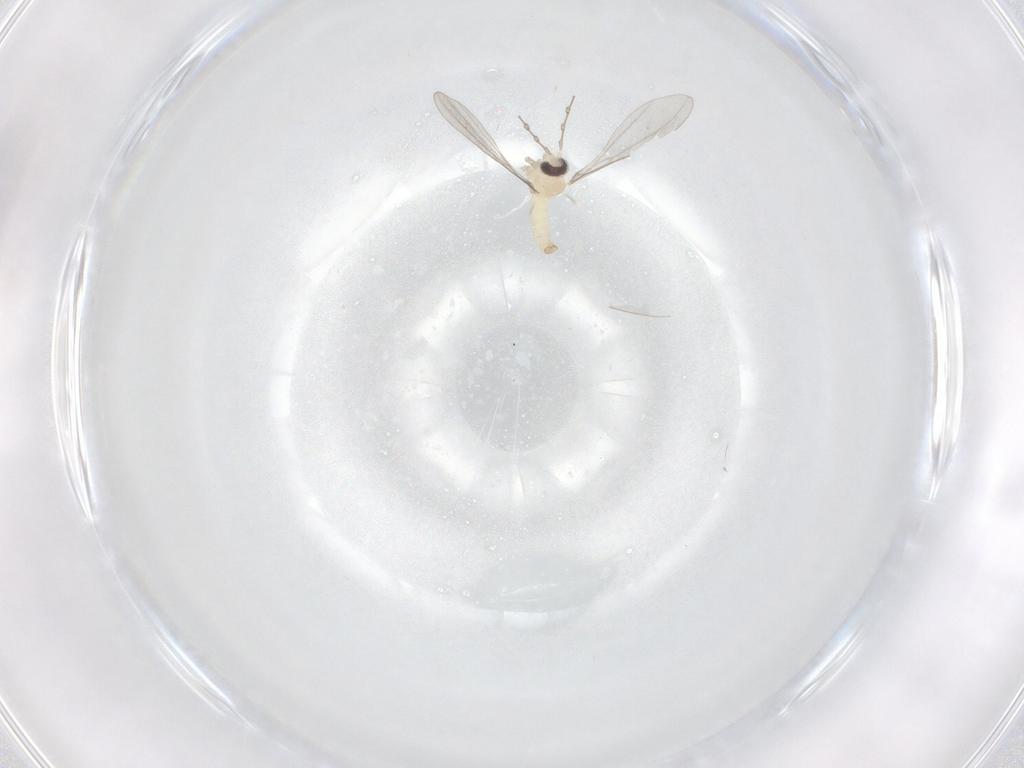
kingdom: Animalia
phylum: Arthropoda
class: Insecta
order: Diptera
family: Cecidomyiidae
